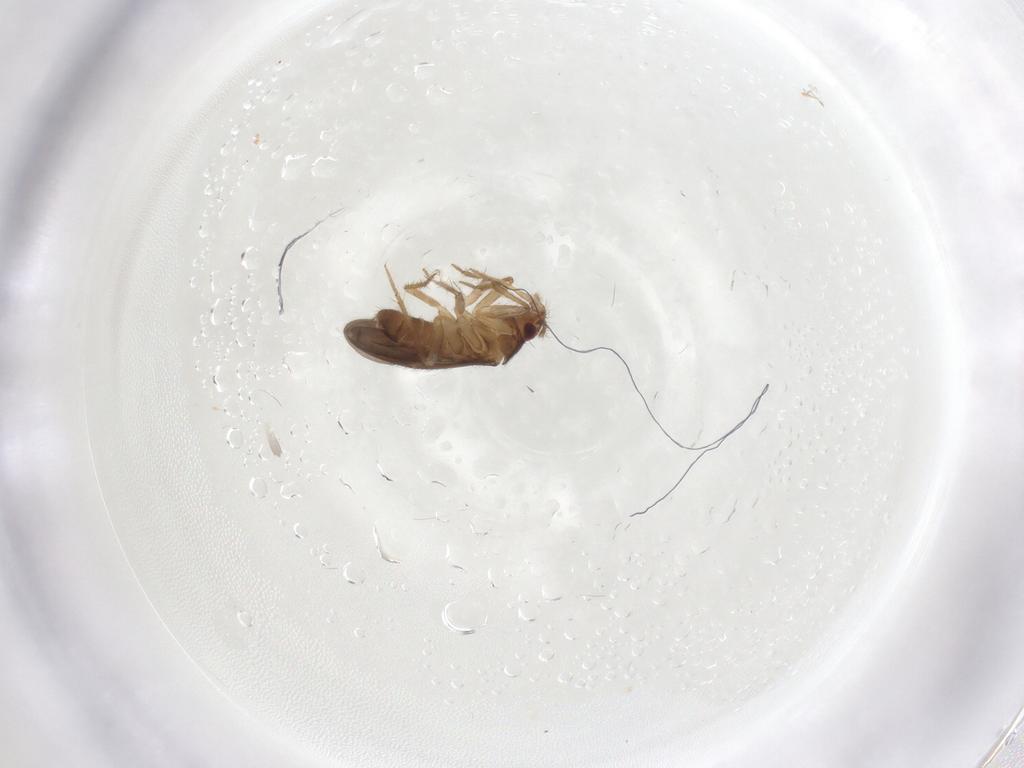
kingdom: Animalia
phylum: Arthropoda
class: Insecta
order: Hemiptera
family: Ceratocombidae
